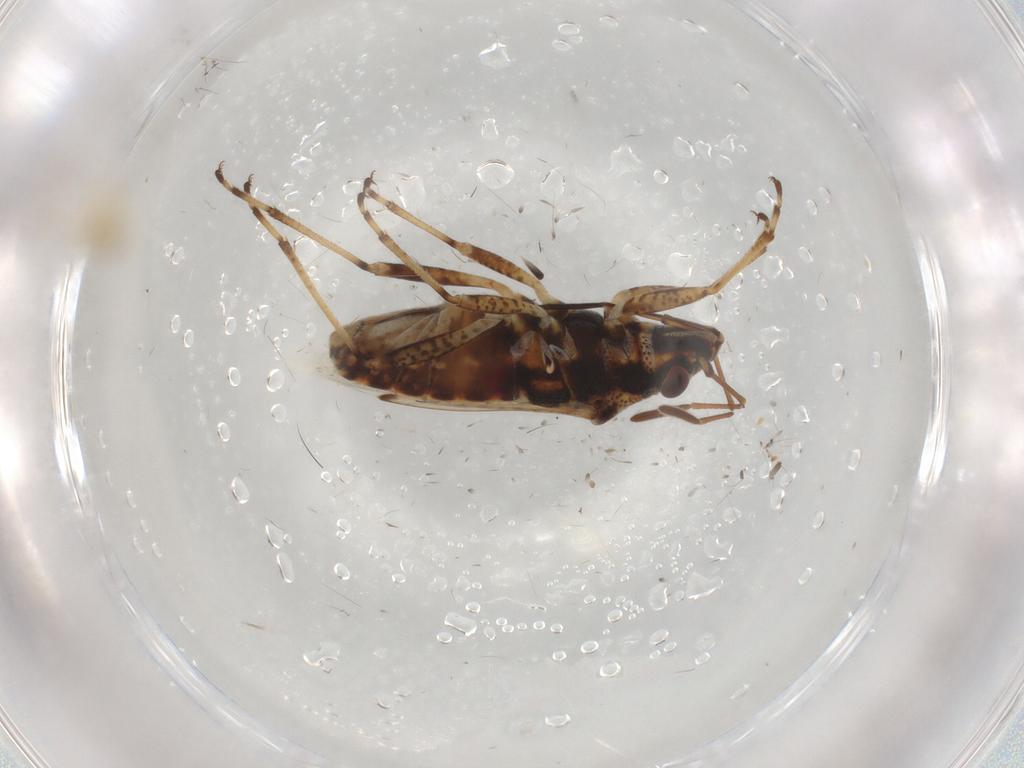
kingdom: Animalia
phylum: Arthropoda
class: Insecta
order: Hemiptera
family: Lygaeidae
